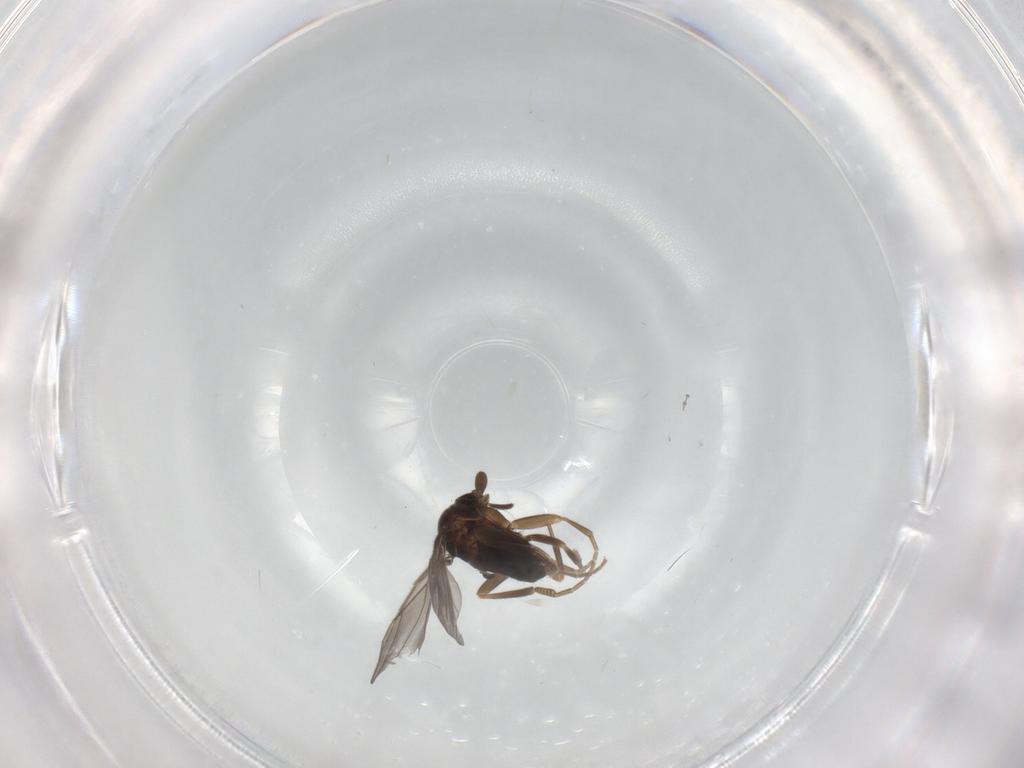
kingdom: Animalia
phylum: Arthropoda
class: Insecta
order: Diptera
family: Phoridae
